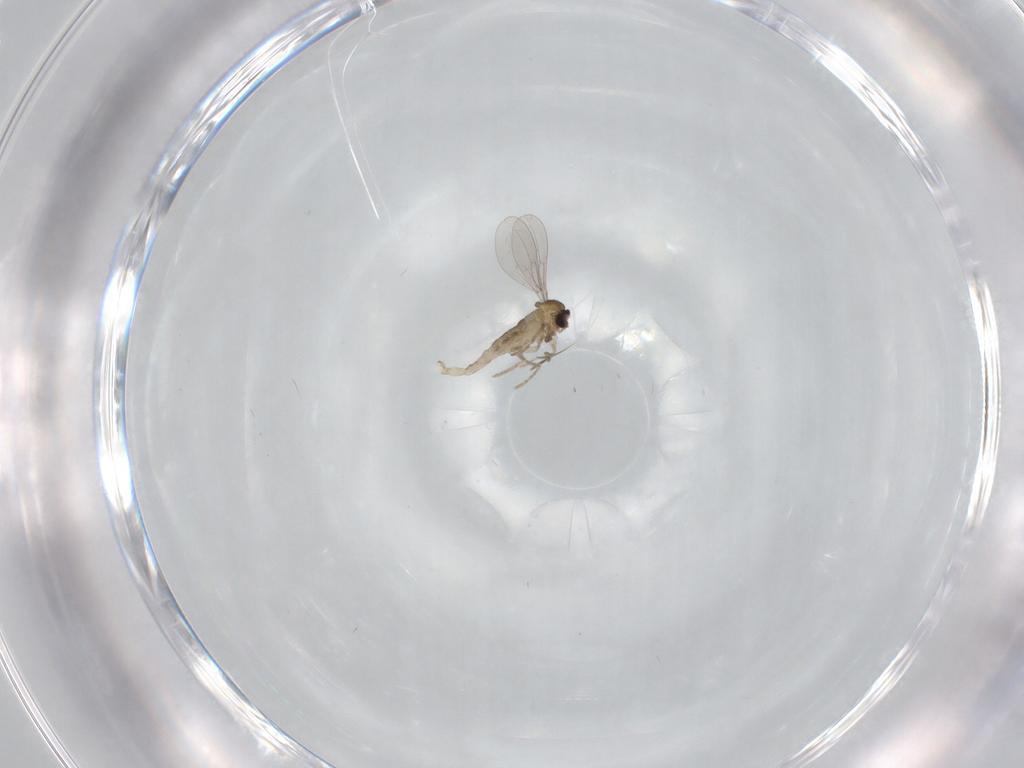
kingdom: Animalia
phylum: Arthropoda
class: Insecta
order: Diptera
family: Cecidomyiidae
